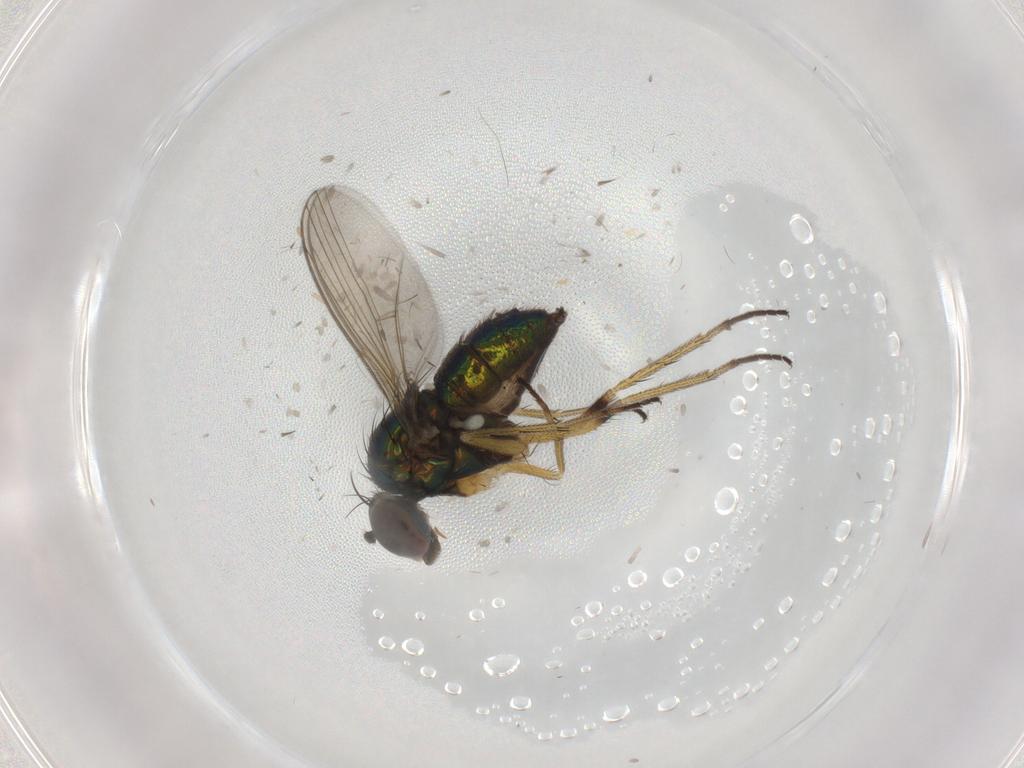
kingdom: Animalia
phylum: Arthropoda
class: Insecta
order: Diptera
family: Dolichopodidae
